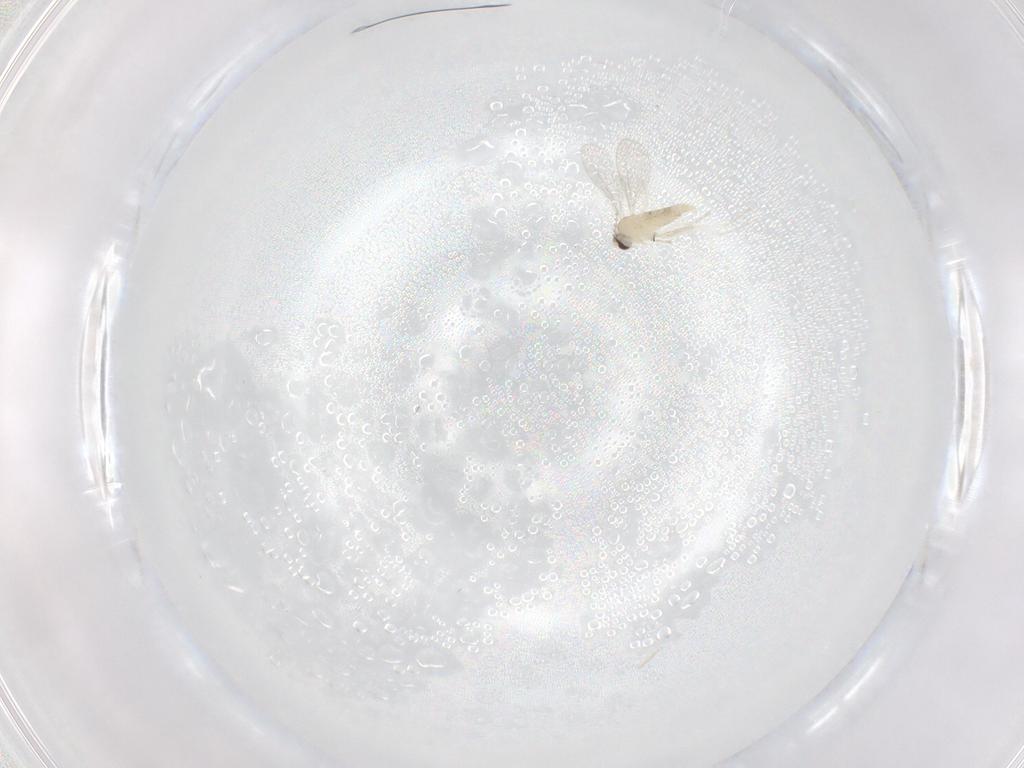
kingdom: Animalia
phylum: Arthropoda
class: Insecta
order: Diptera
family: Cecidomyiidae
